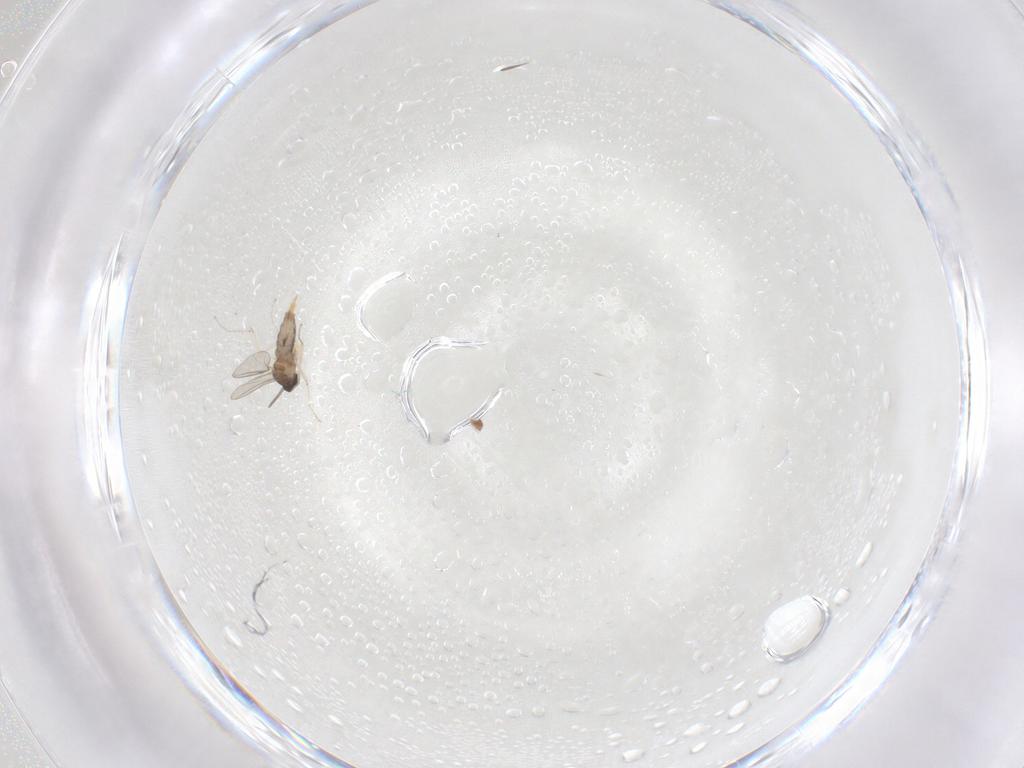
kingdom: Animalia
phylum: Arthropoda
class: Insecta
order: Diptera
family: Cecidomyiidae
